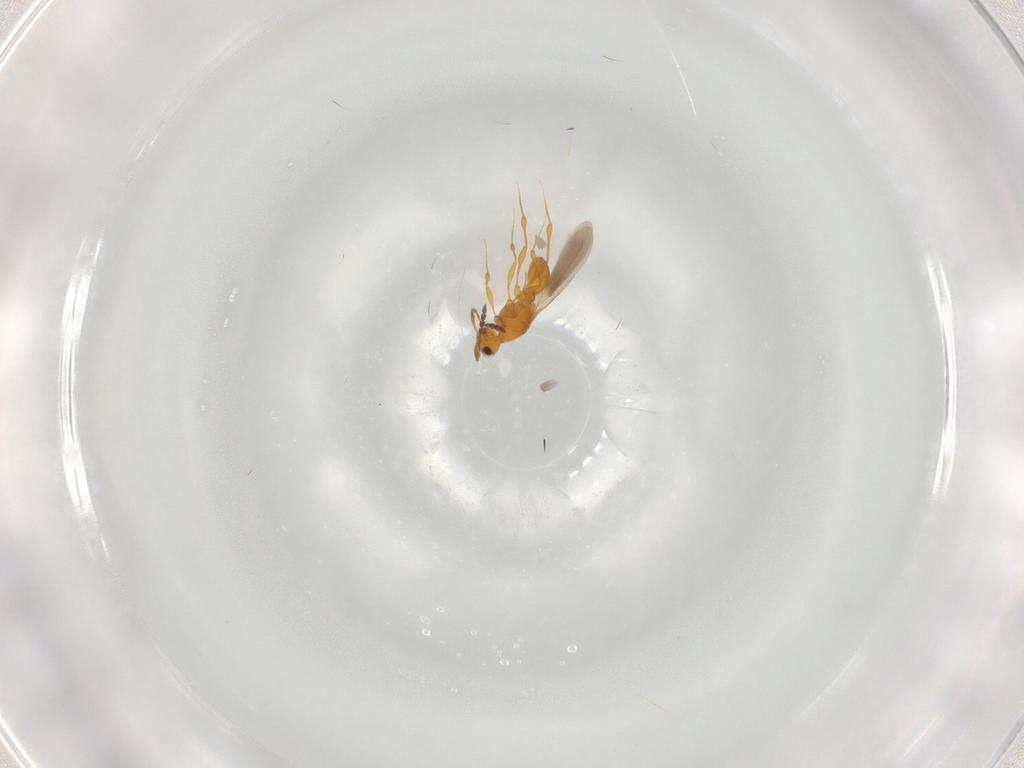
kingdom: Animalia
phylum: Arthropoda
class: Insecta
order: Hymenoptera
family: Platygastridae
